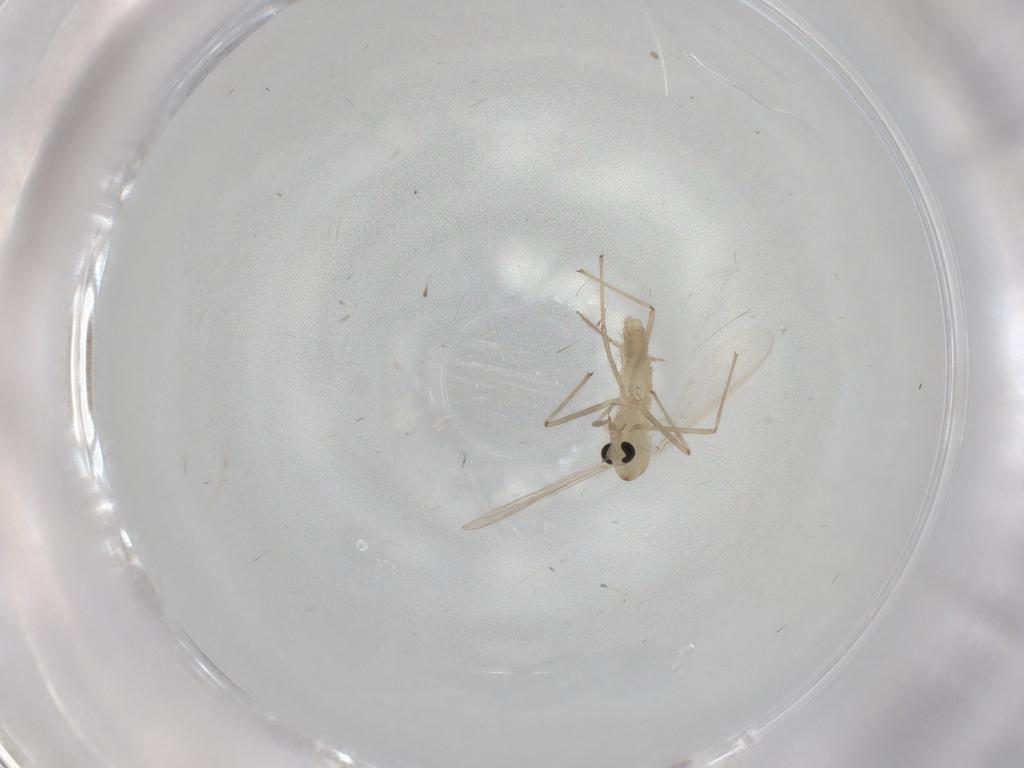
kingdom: Animalia
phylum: Arthropoda
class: Insecta
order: Diptera
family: Chironomidae
